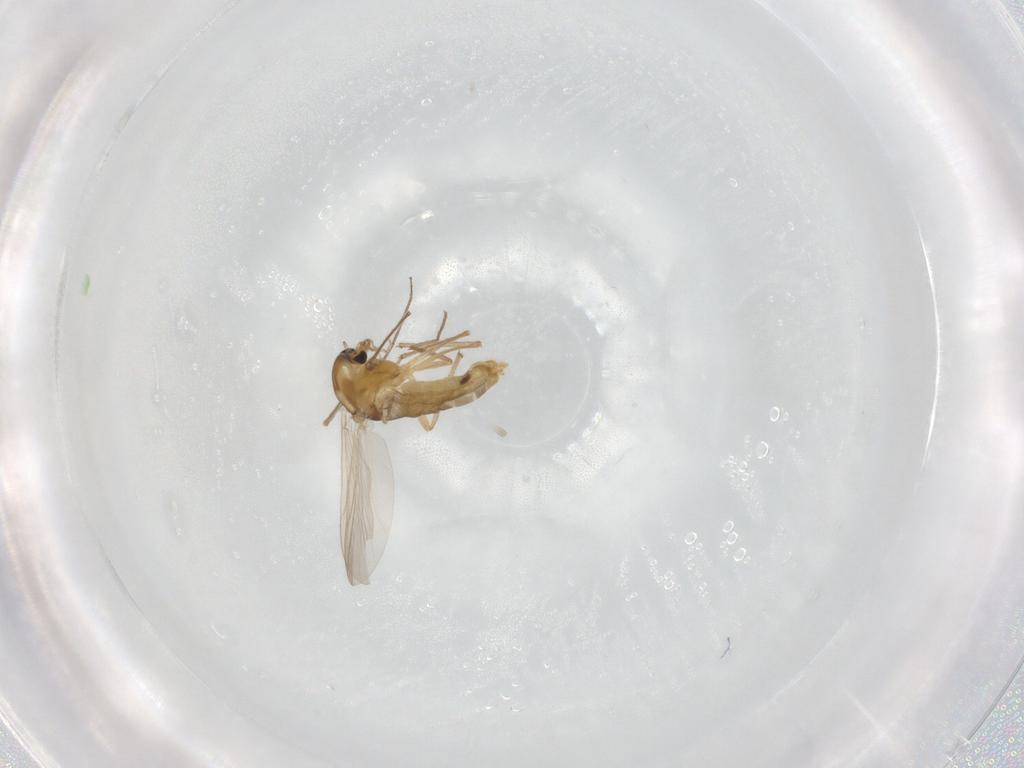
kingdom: Animalia
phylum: Arthropoda
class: Insecta
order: Diptera
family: Chironomidae
